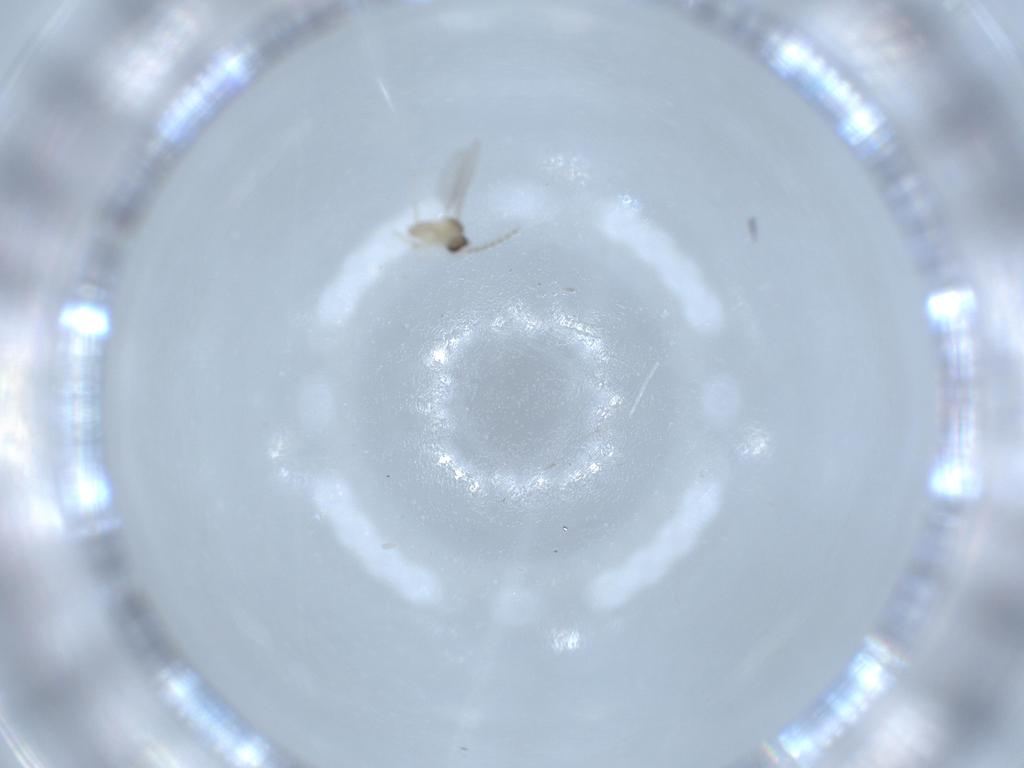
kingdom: Animalia
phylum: Arthropoda
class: Insecta
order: Diptera
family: Cecidomyiidae
